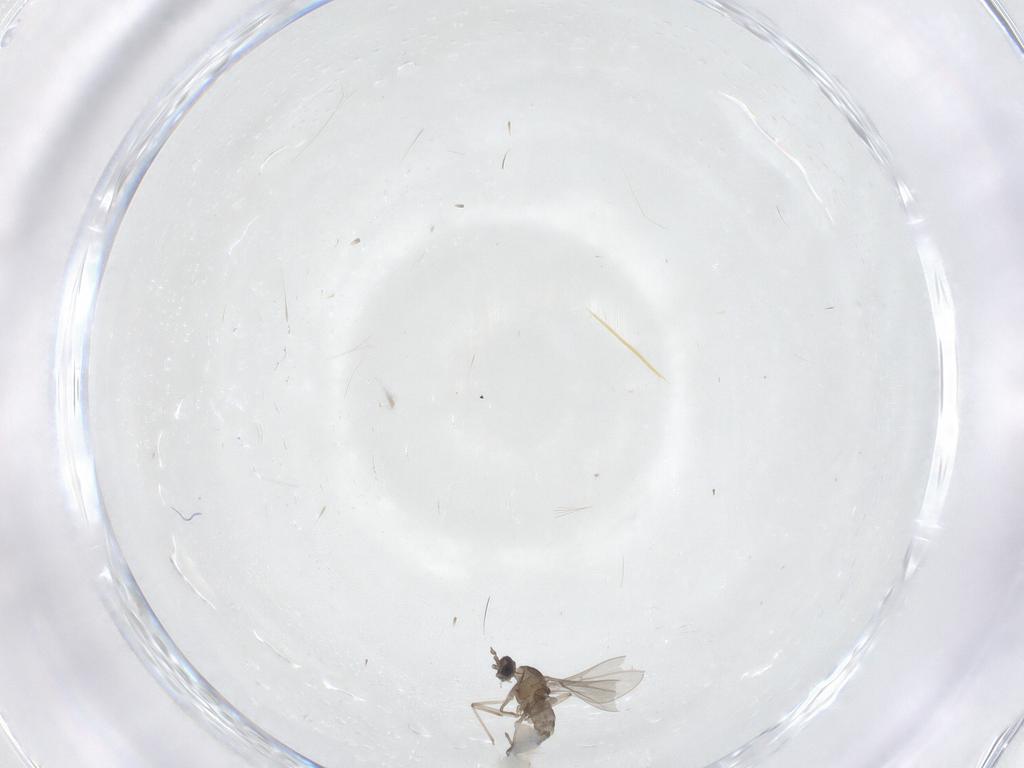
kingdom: Animalia
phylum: Arthropoda
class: Insecta
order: Diptera
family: Cecidomyiidae
